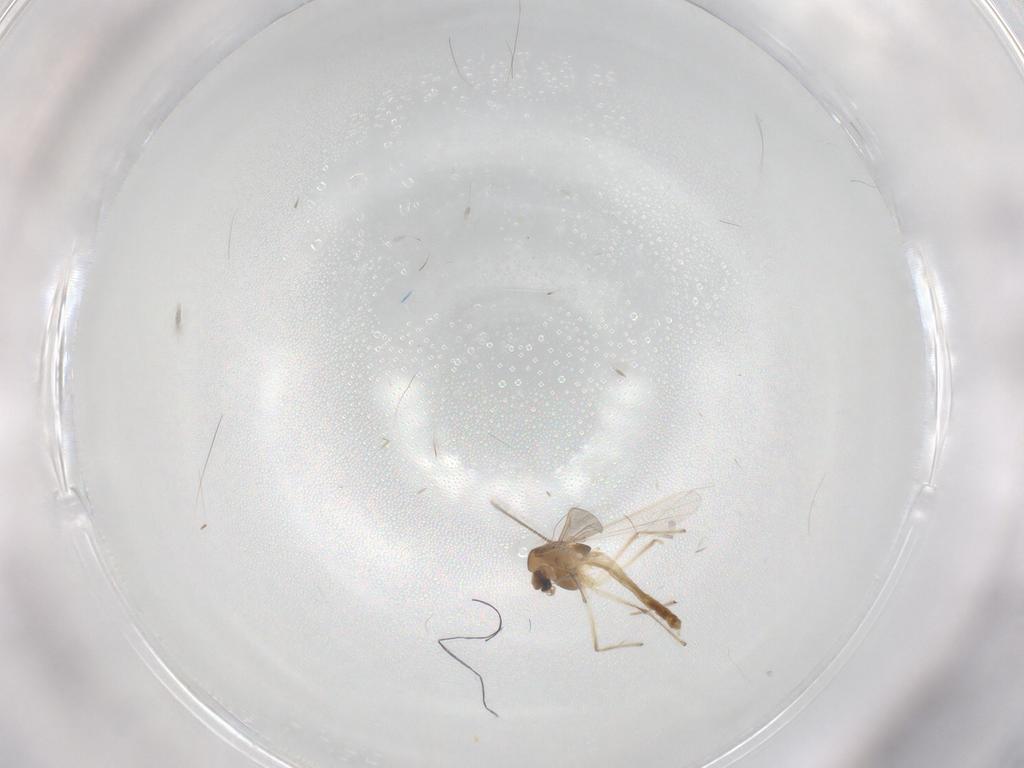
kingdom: Animalia
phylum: Arthropoda
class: Insecta
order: Diptera
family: Chironomidae
